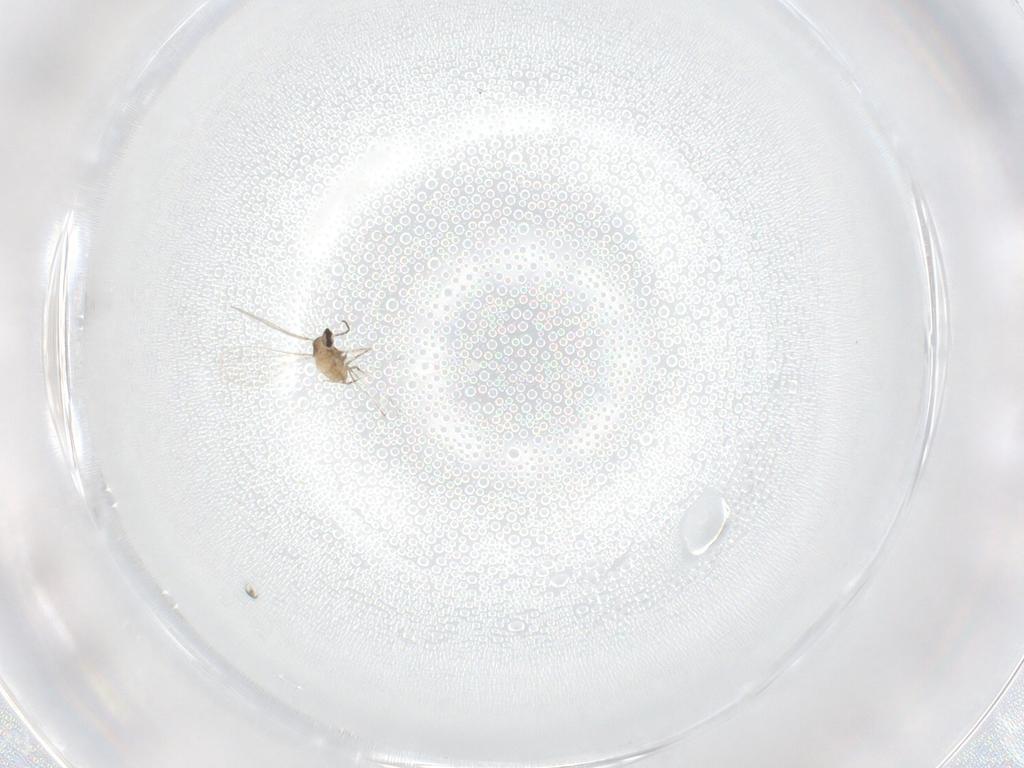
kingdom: Animalia
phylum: Arthropoda
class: Insecta
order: Diptera
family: Cecidomyiidae
